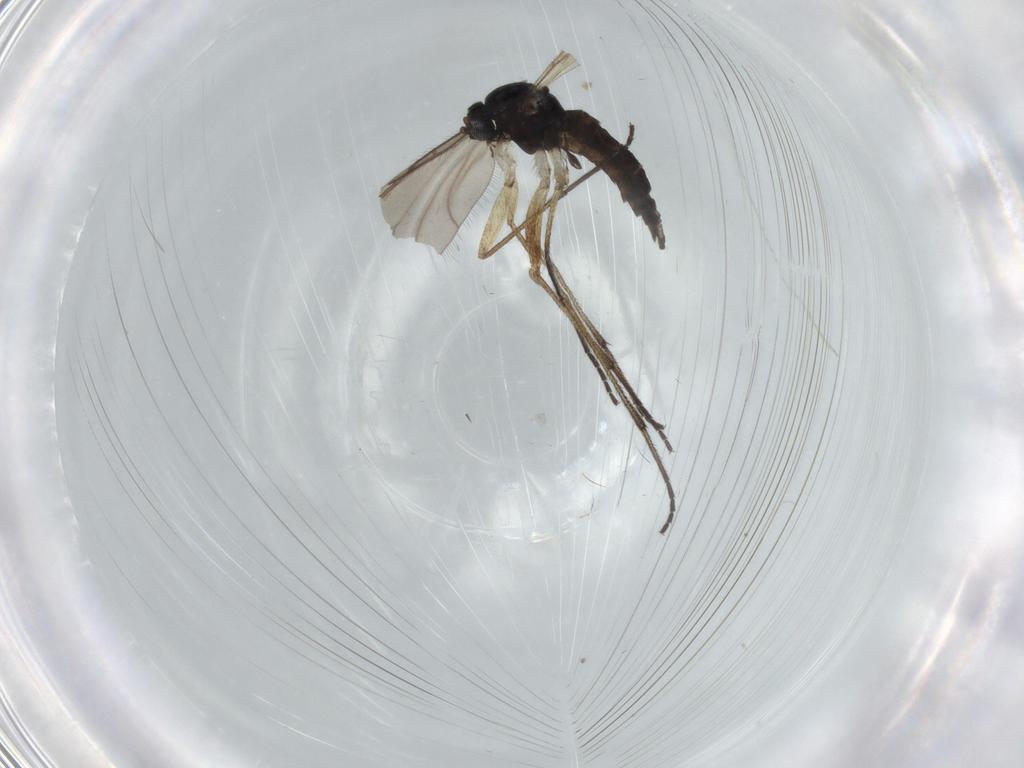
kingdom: Animalia
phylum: Arthropoda
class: Insecta
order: Diptera
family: Sciaridae
